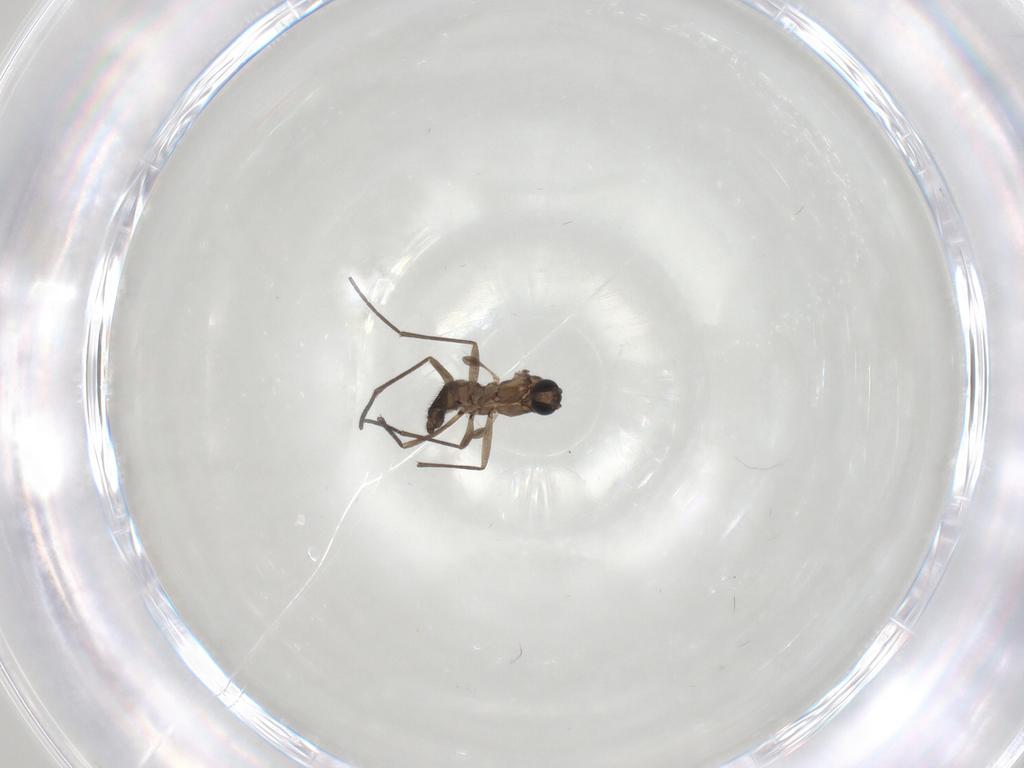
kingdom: Animalia
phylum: Arthropoda
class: Insecta
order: Diptera
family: Sciaridae
